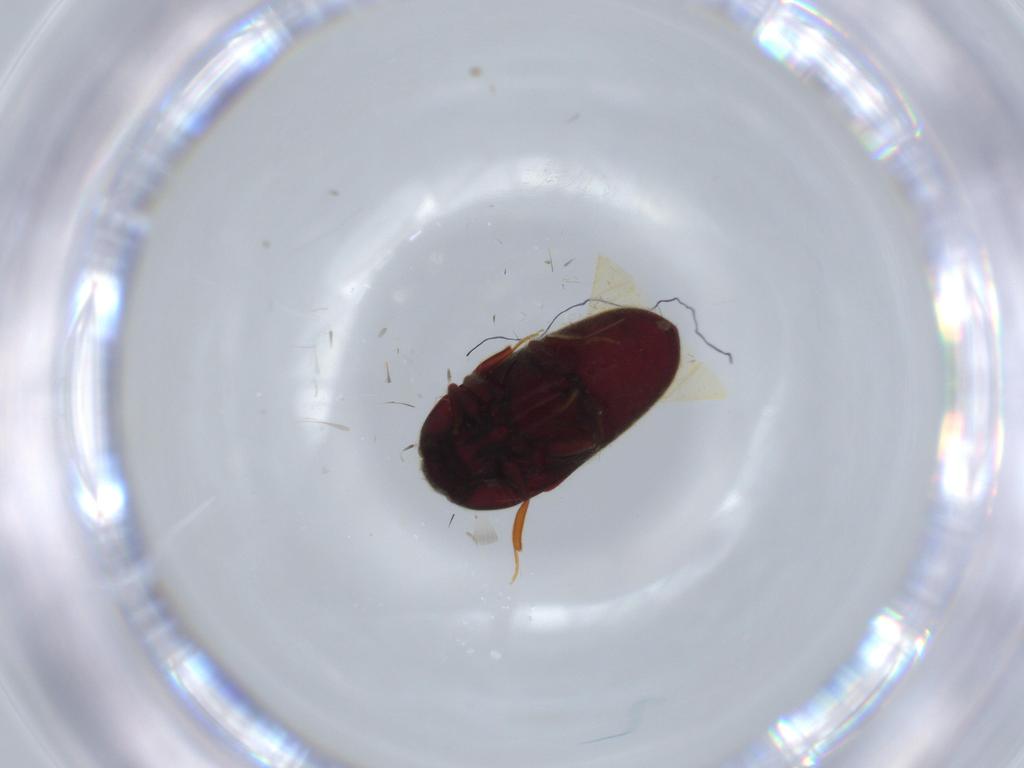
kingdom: Animalia
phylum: Arthropoda
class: Insecta
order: Coleoptera
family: Throscidae
